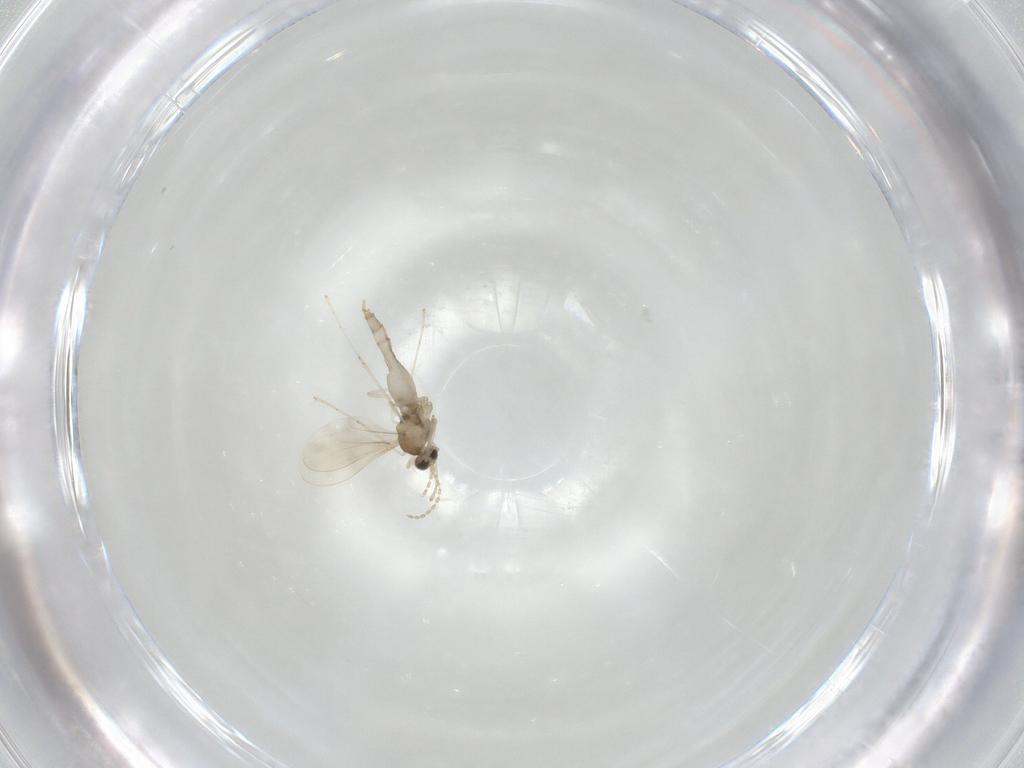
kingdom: Animalia
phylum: Arthropoda
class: Insecta
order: Diptera
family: Cecidomyiidae
